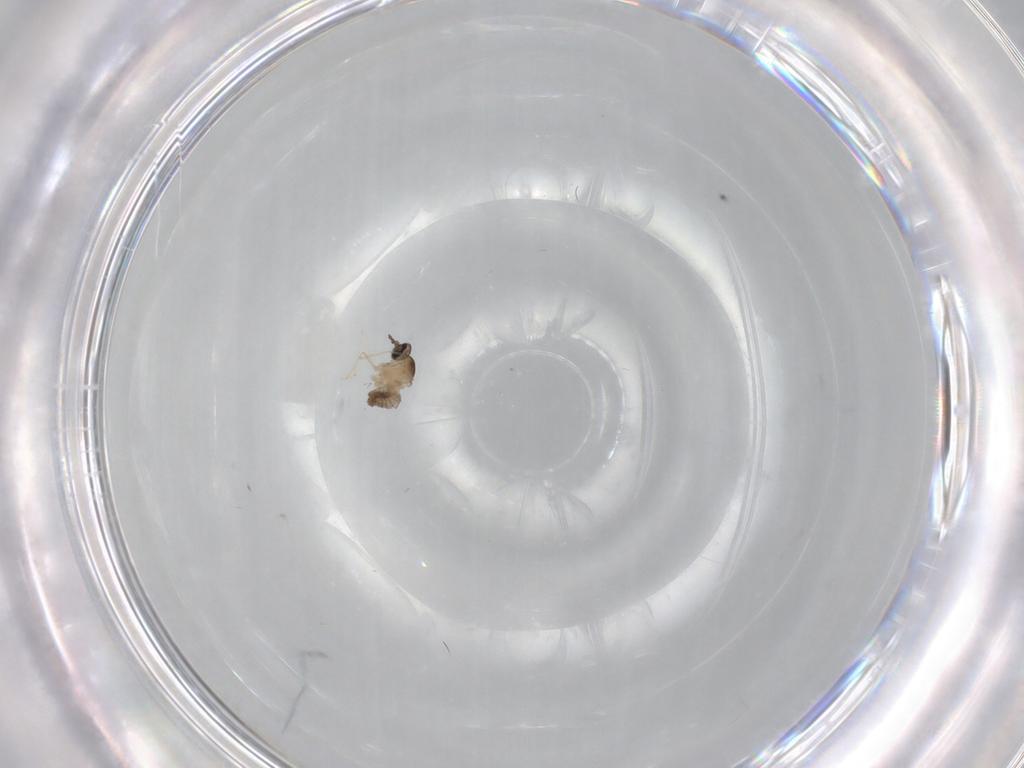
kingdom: Animalia
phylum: Arthropoda
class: Insecta
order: Diptera
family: Cecidomyiidae
